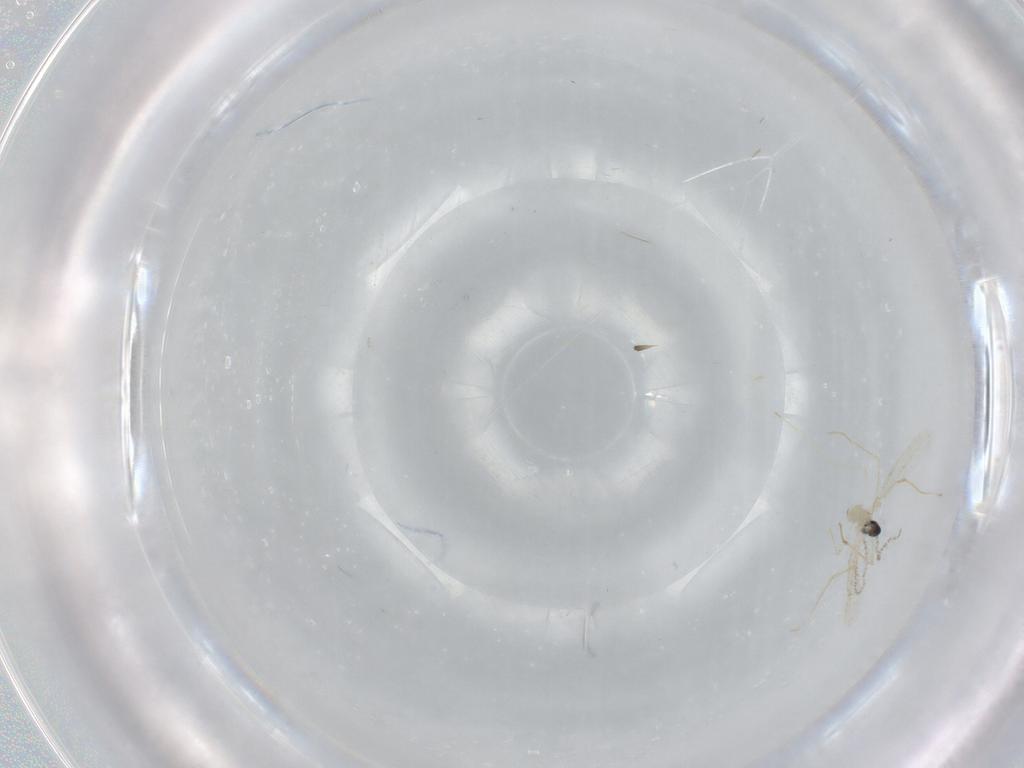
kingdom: Animalia
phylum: Arthropoda
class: Insecta
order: Diptera
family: Cecidomyiidae
